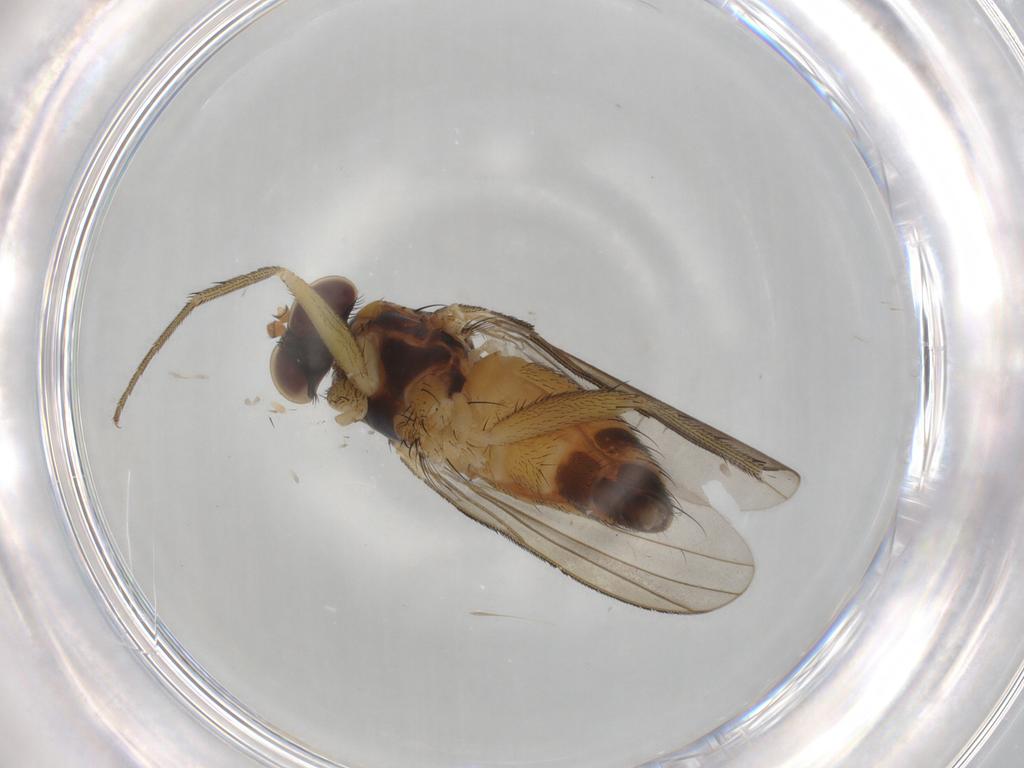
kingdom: Animalia
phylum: Arthropoda
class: Insecta
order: Diptera
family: Dolichopodidae
